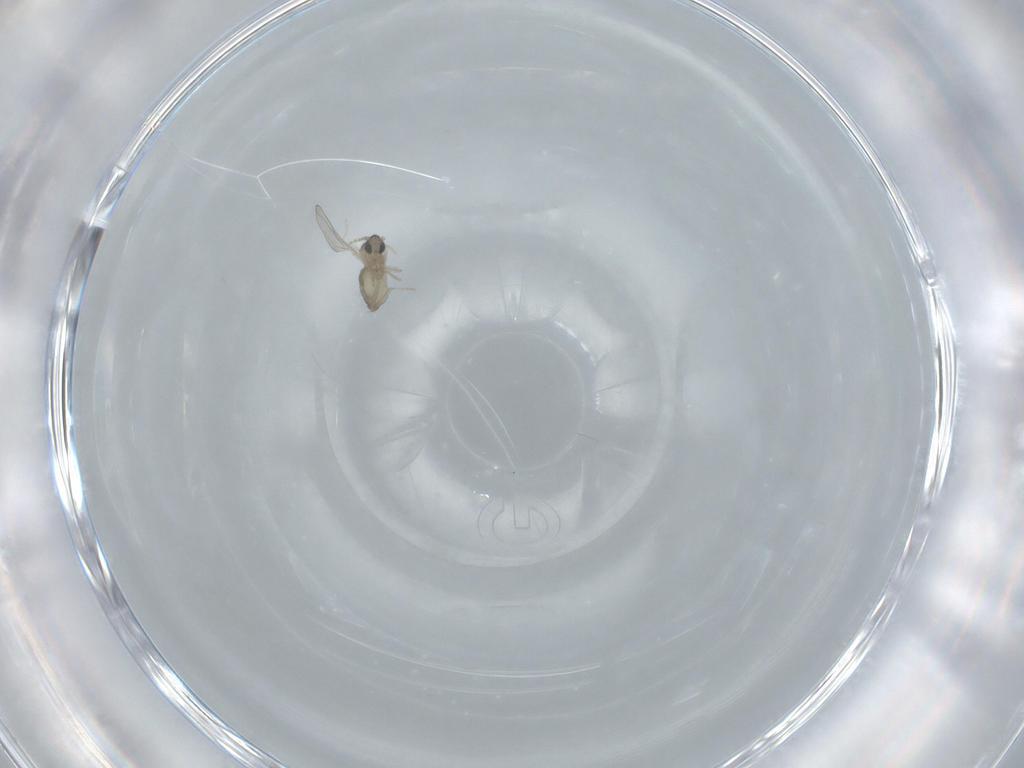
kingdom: Animalia
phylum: Arthropoda
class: Insecta
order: Diptera
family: Cecidomyiidae
